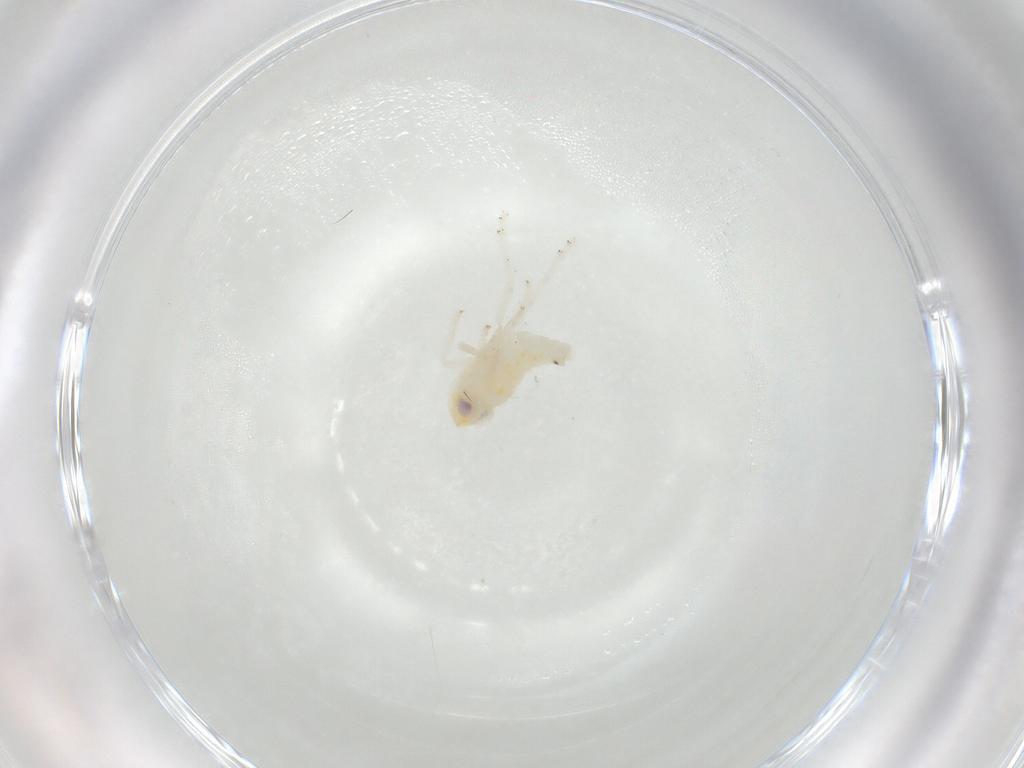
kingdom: Animalia
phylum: Arthropoda
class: Insecta
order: Hemiptera
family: Nogodinidae
